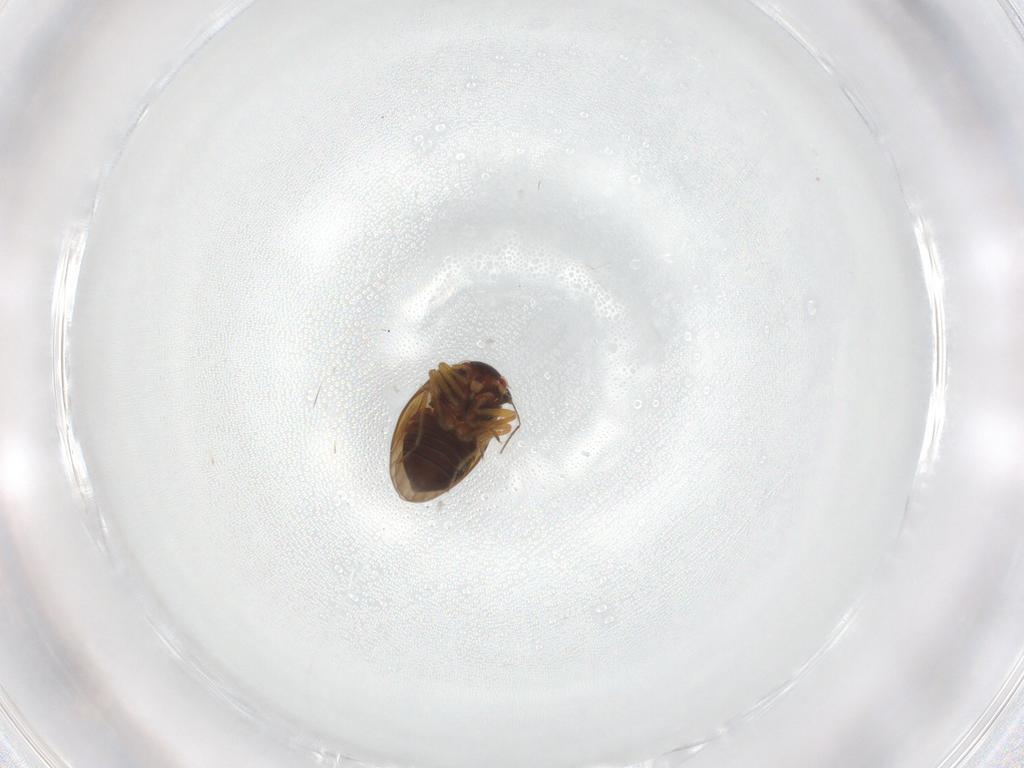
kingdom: Animalia
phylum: Arthropoda
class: Insecta
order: Hemiptera
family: Schizopteridae
